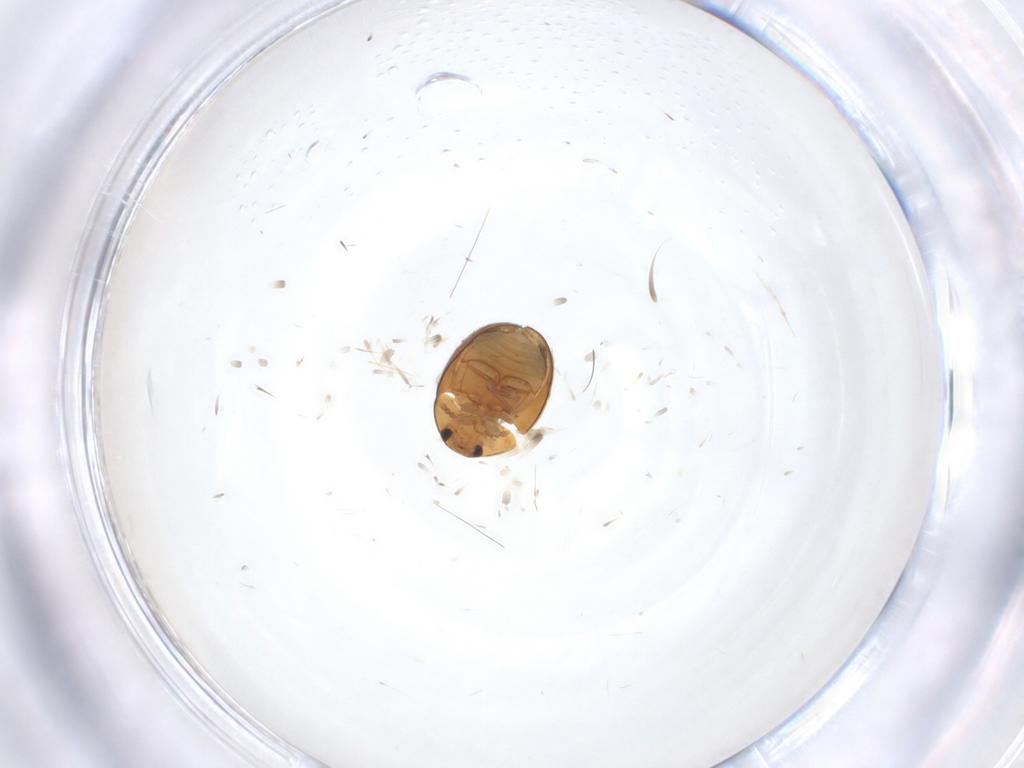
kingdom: Animalia
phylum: Arthropoda
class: Insecta
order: Coleoptera
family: Phalacridae
